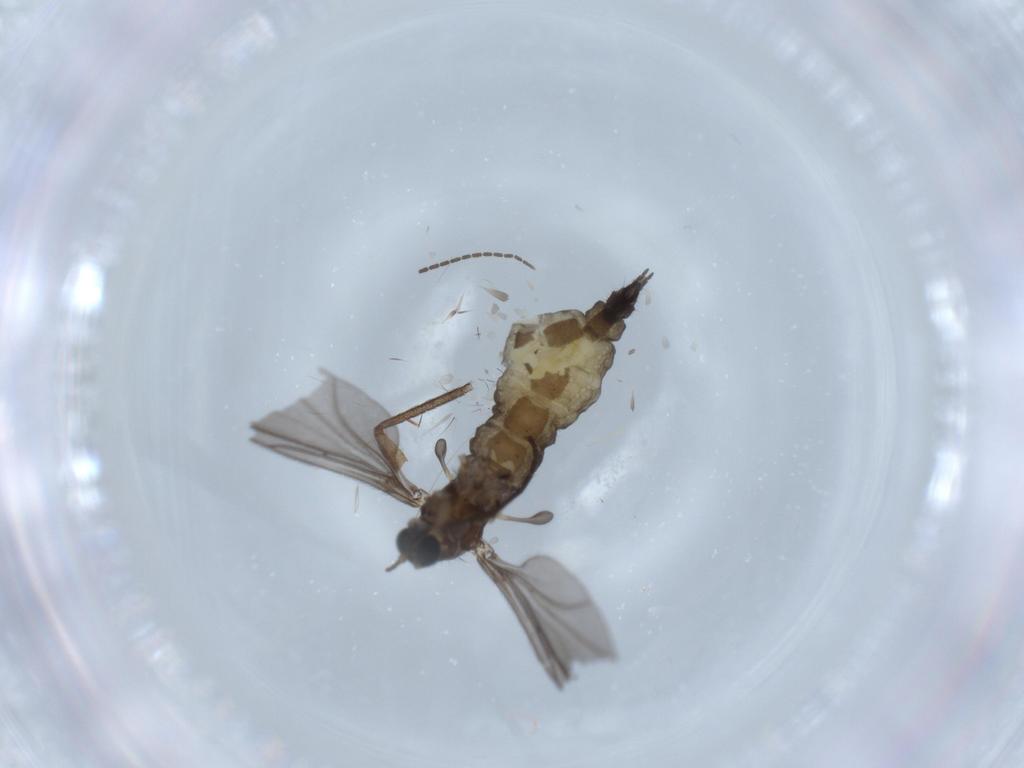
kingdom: Animalia
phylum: Arthropoda
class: Insecta
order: Diptera
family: Sciaridae
